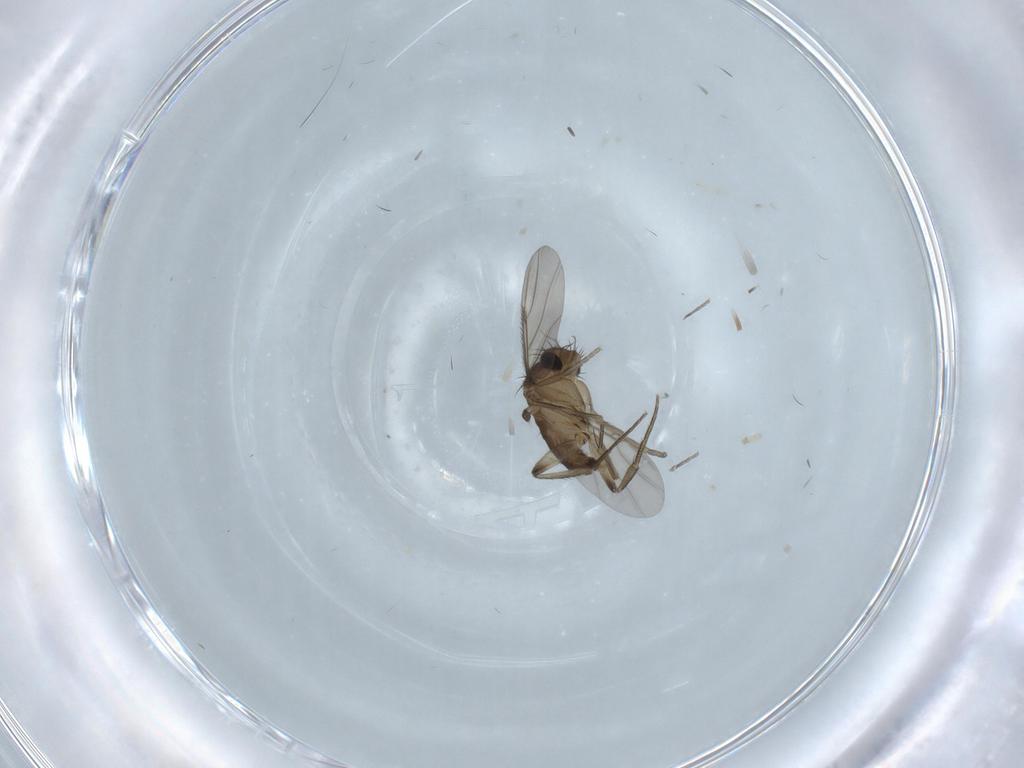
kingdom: Animalia
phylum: Arthropoda
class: Insecta
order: Diptera
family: Phoridae
